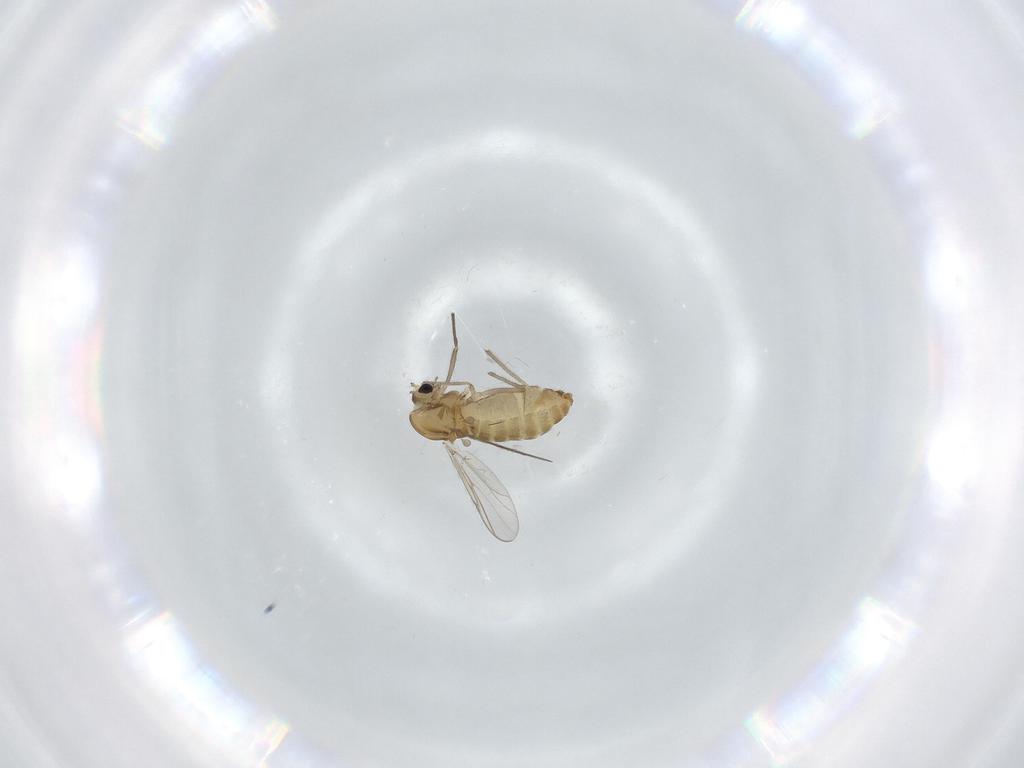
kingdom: Animalia
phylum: Arthropoda
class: Insecta
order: Diptera
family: Chironomidae
